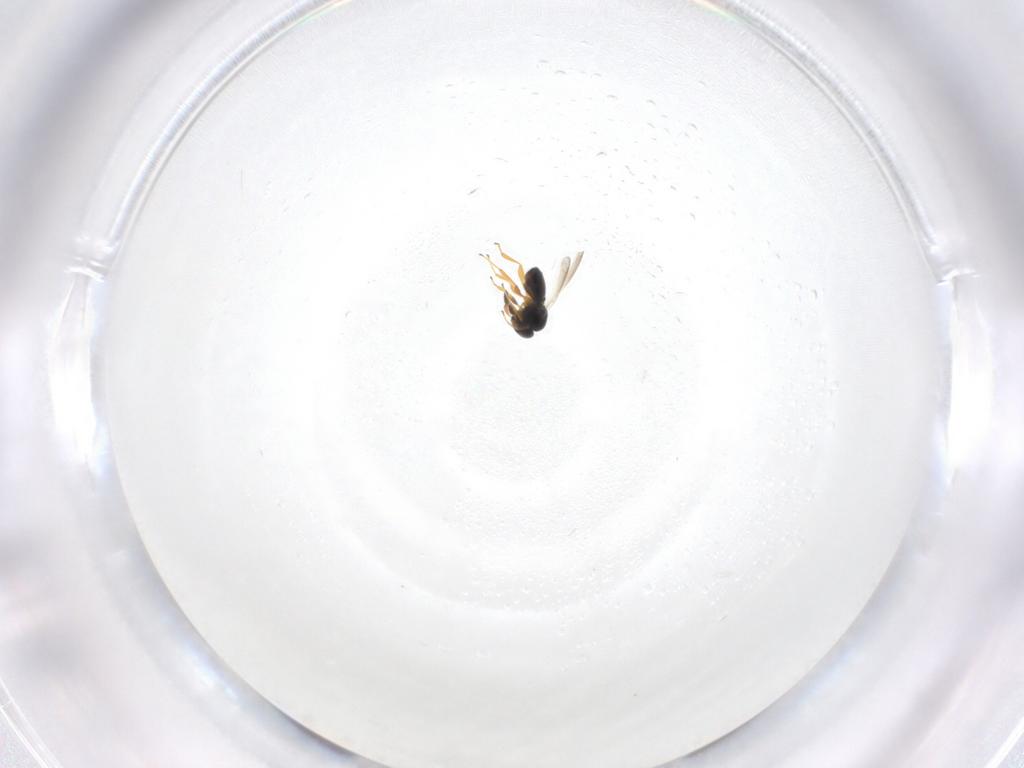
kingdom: Animalia
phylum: Arthropoda
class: Insecta
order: Hymenoptera
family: Platygastridae
